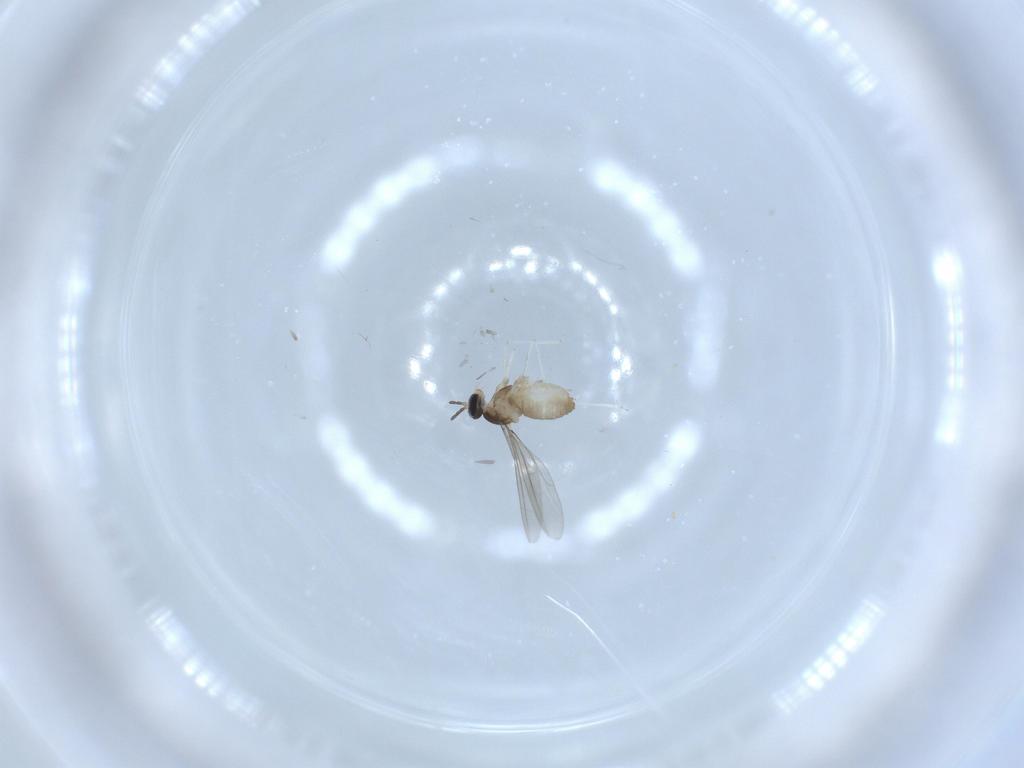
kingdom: Animalia
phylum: Arthropoda
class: Insecta
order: Diptera
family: Cecidomyiidae
